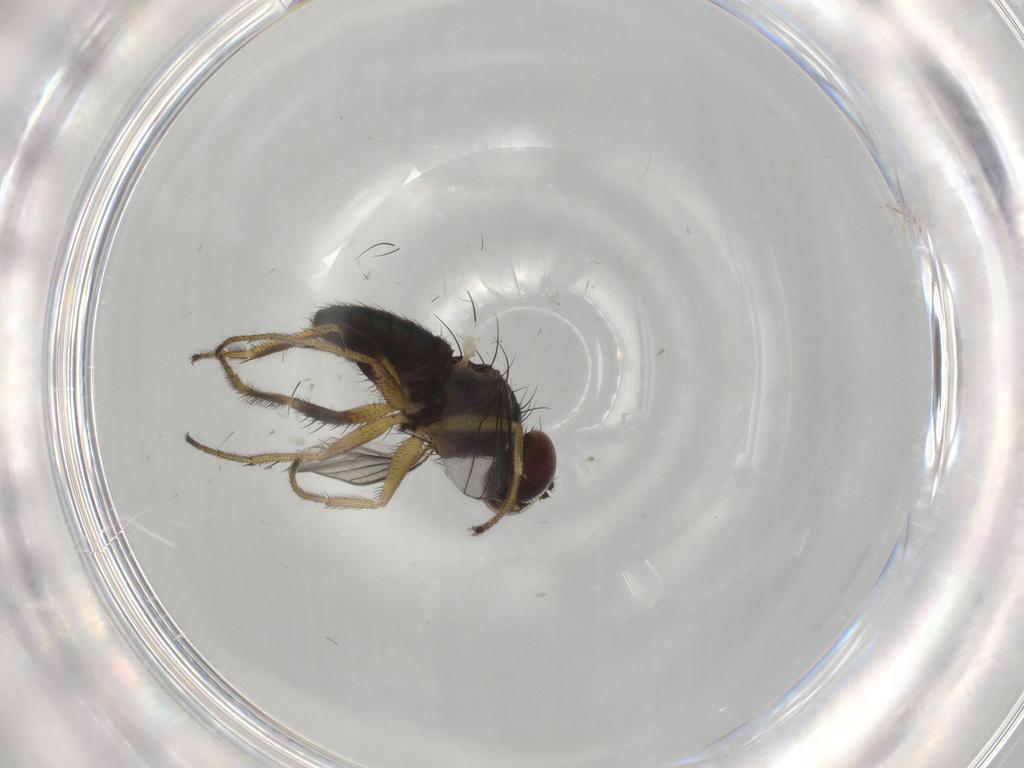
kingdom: Animalia
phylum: Arthropoda
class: Insecta
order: Diptera
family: Dolichopodidae
